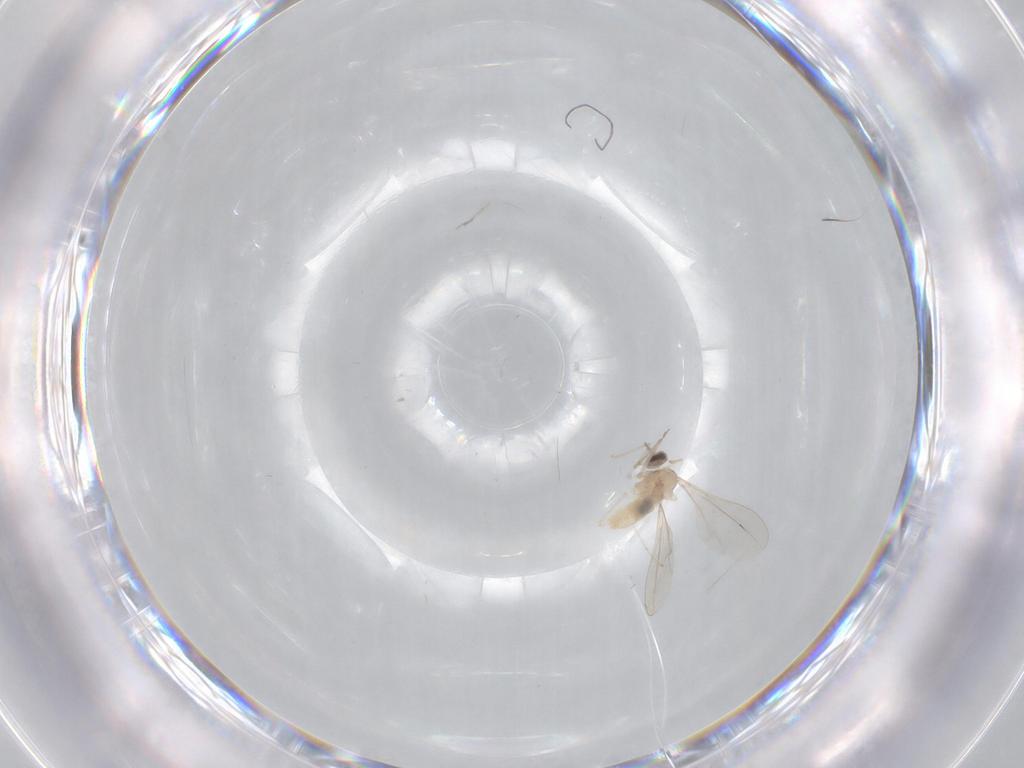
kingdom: Animalia
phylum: Arthropoda
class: Insecta
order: Diptera
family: Cecidomyiidae
